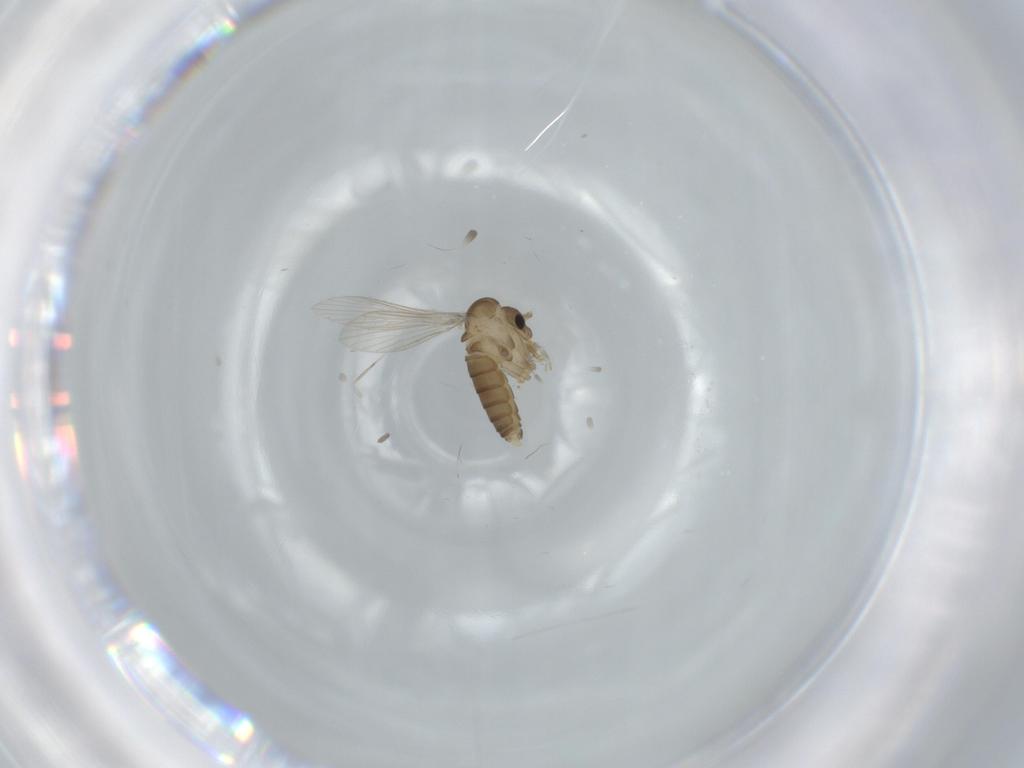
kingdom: Animalia
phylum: Arthropoda
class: Insecta
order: Diptera
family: Psychodidae
